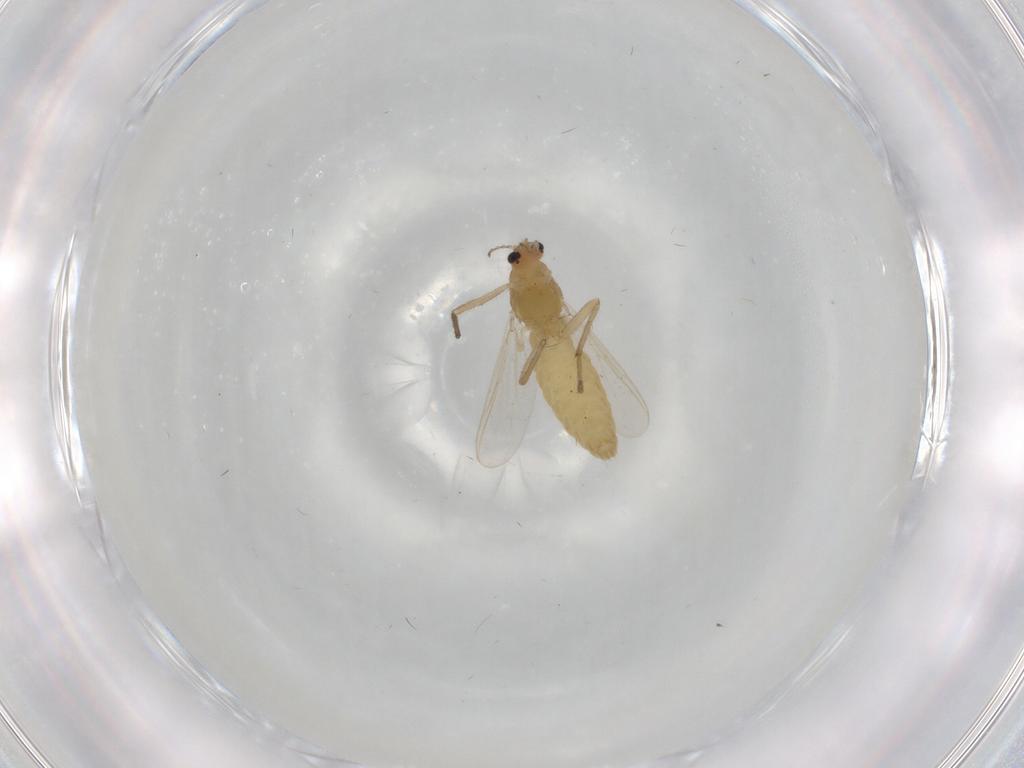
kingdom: Animalia
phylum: Arthropoda
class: Insecta
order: Diptera
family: Chironomidae
